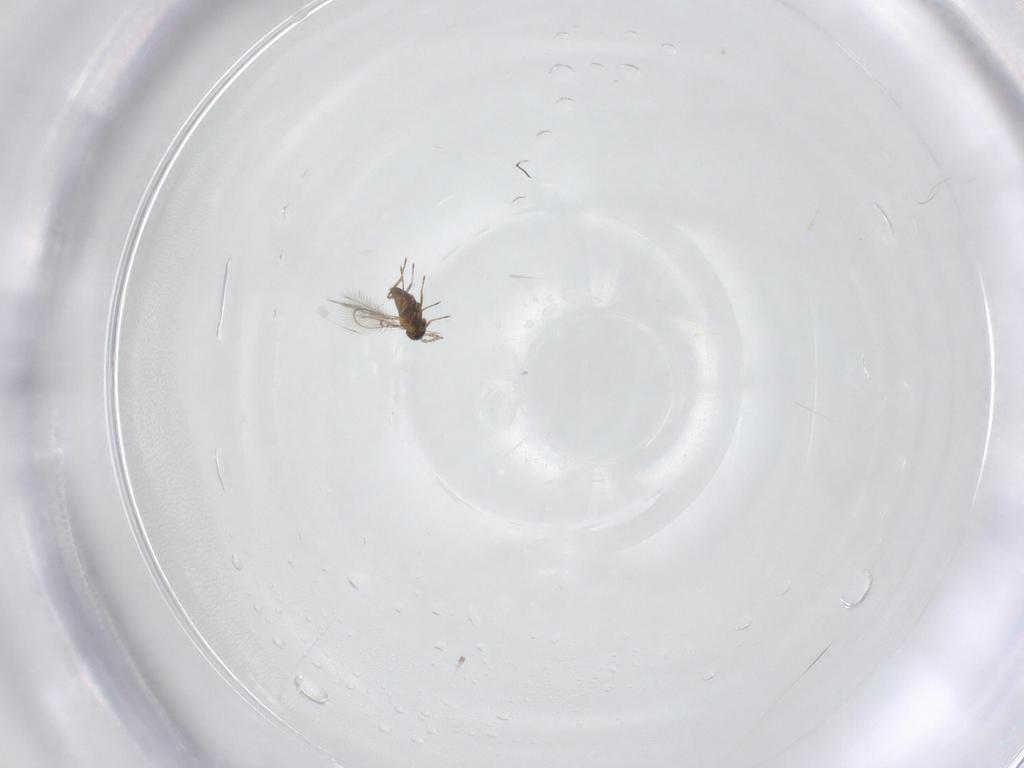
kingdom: Animalia
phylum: Arthropoda
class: Insecta
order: Hymenoptera
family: Trichogrammatidae
